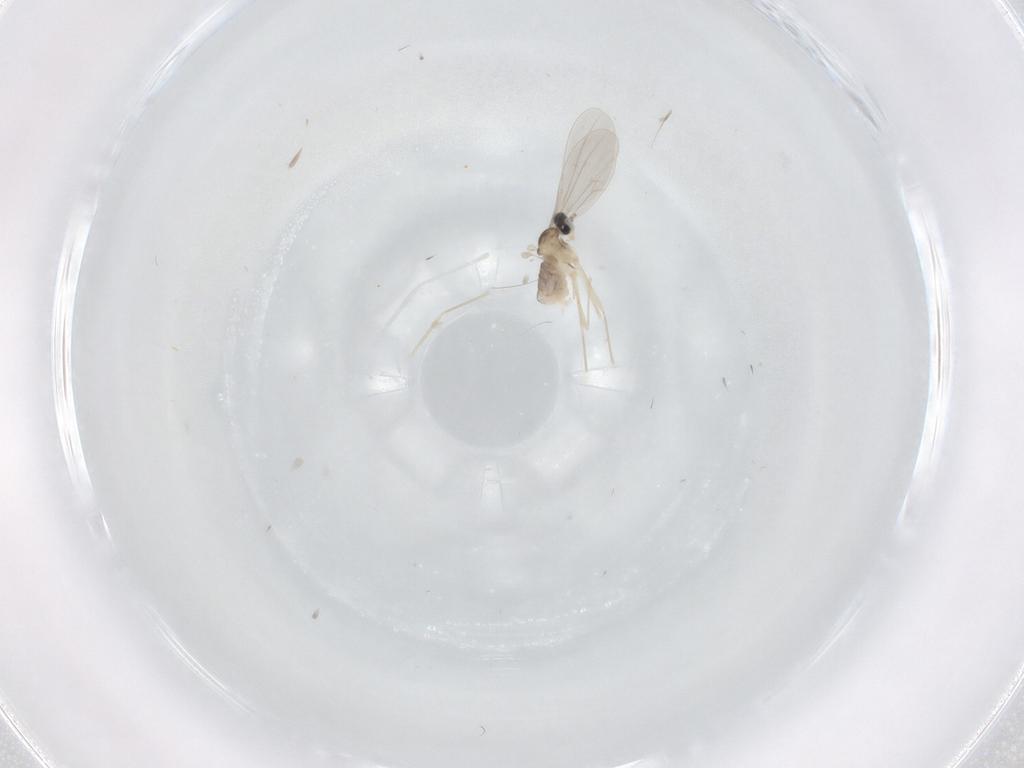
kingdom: Animalia
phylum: Arthropoda
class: Insecta
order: Diptera
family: Cecidomyiidae
